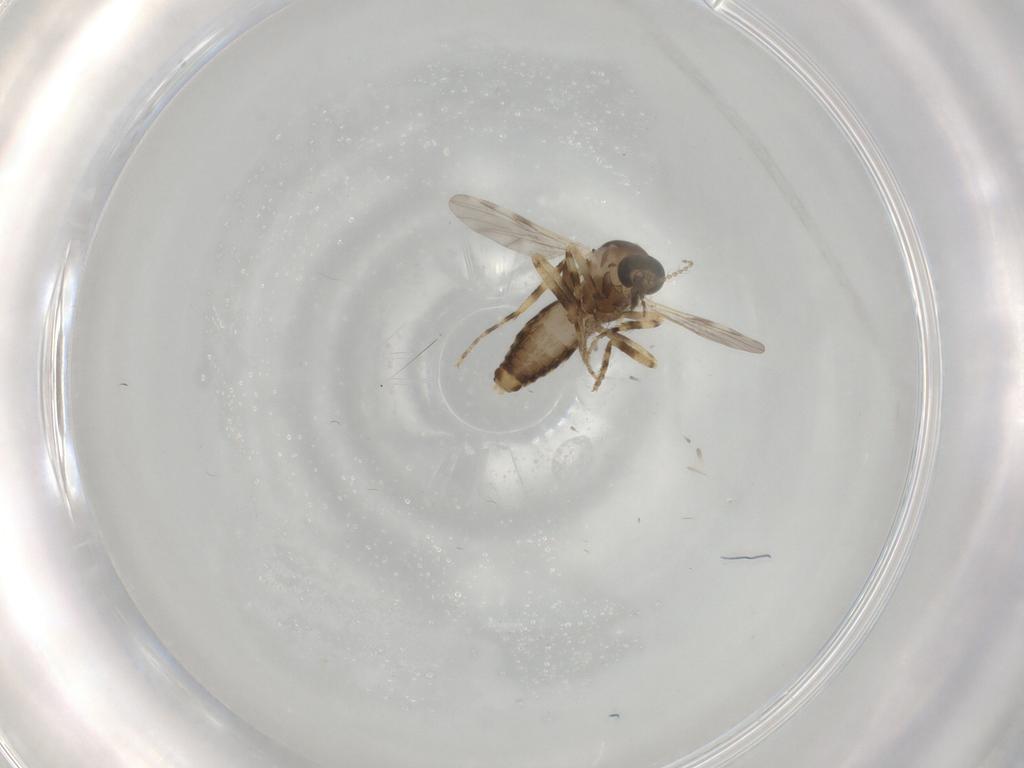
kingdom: Animalia
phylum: Arthropoda
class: Insecta
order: Diptera
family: Ceratopogonidae
